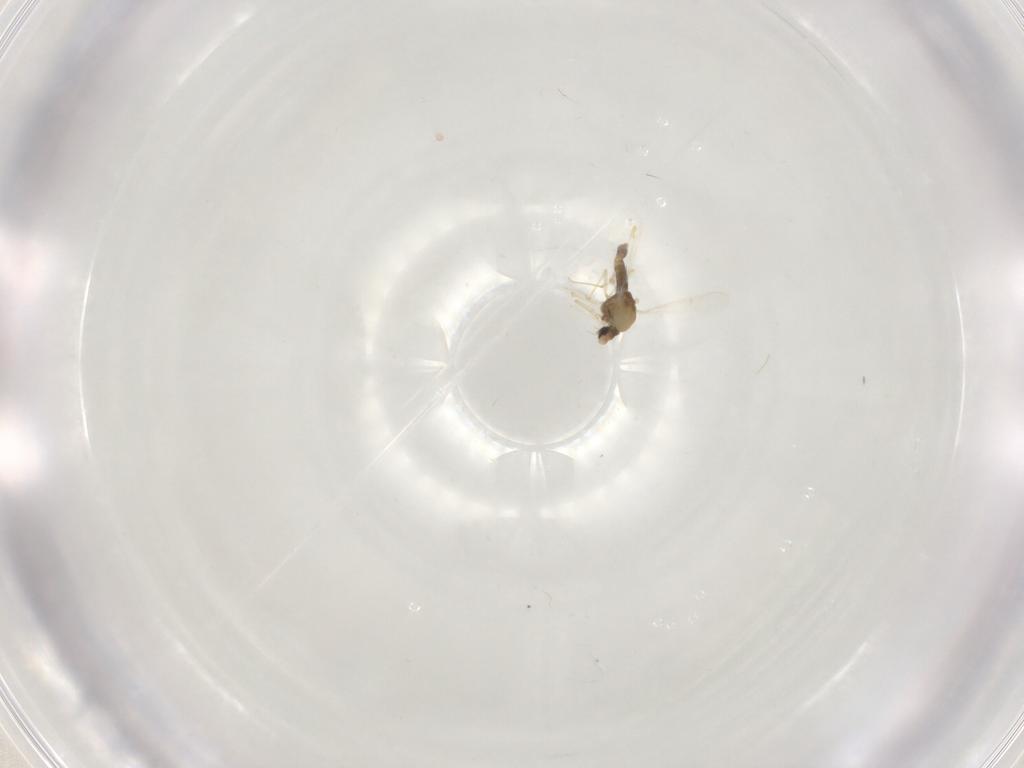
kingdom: Animalia
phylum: Arthropoda
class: Insecta
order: Diptera
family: Chironomidae
